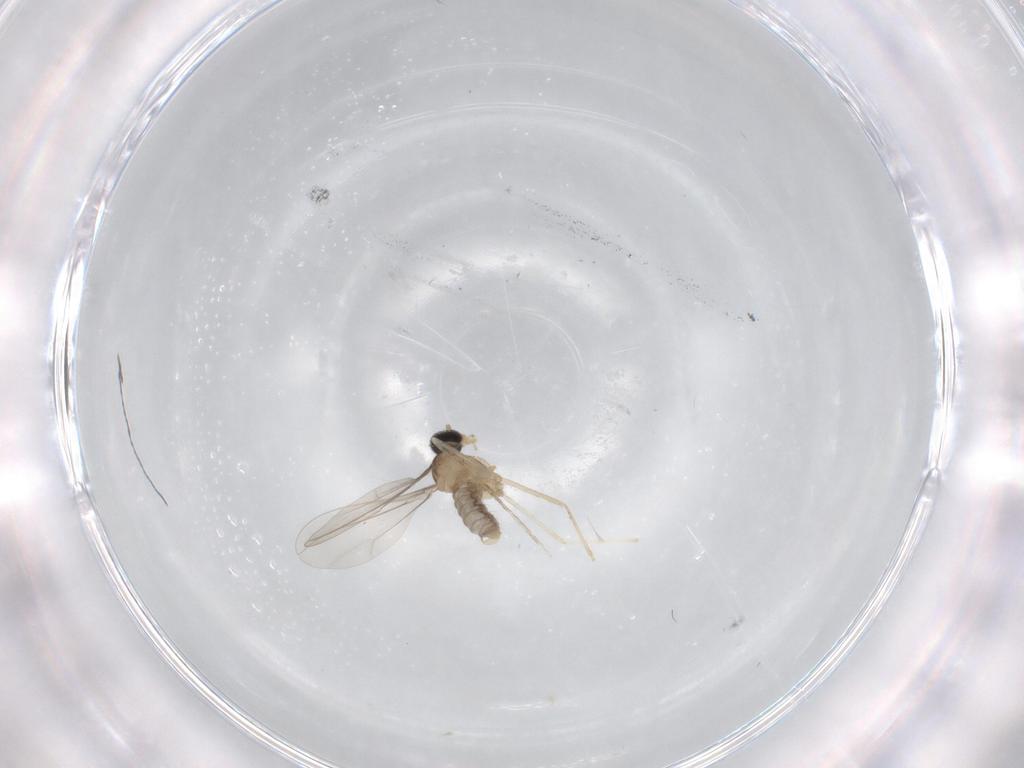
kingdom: Animalia
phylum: Arthropoda
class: Insecta
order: Diptera
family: Cecidomyiidae
